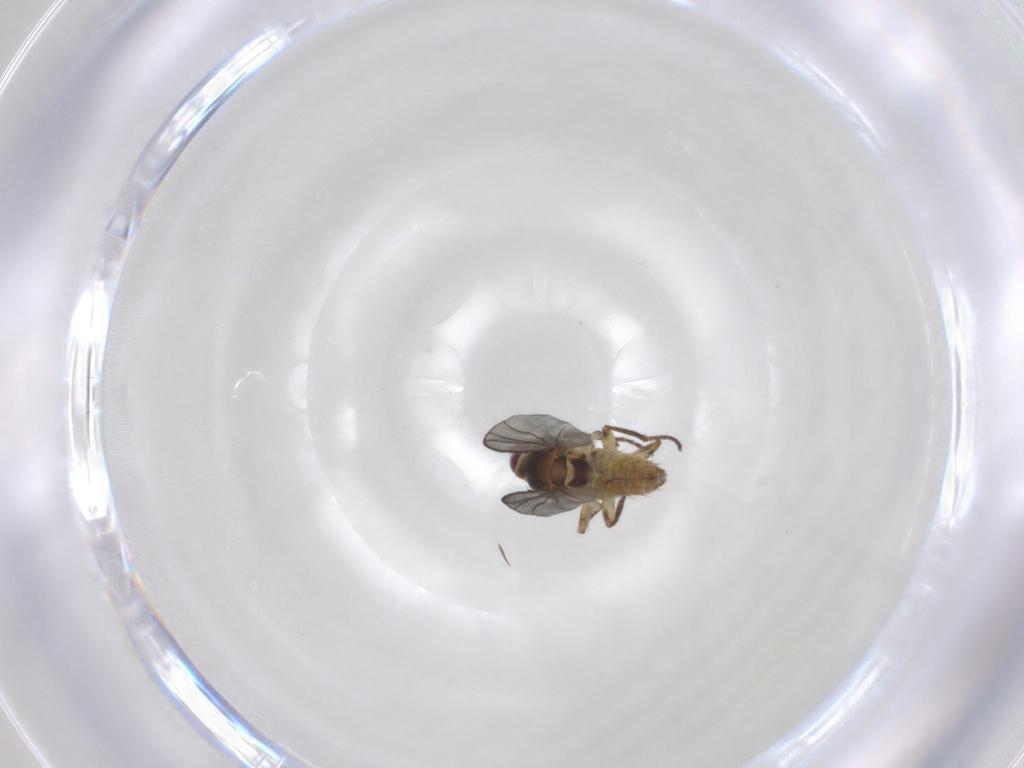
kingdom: Animalia
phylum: Arthropoda
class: Insecta
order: Diptera
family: Agromyzidae
